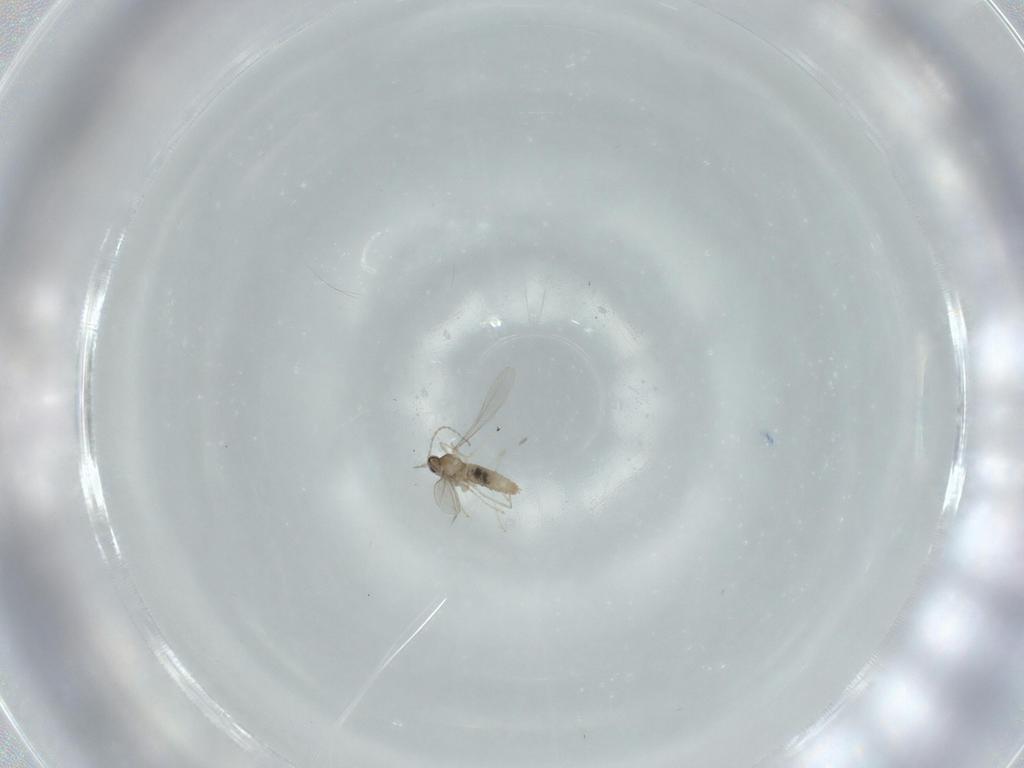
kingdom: Animalia
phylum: Arthropoda
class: Insecta
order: Diptera
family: Cecidomyiidae
